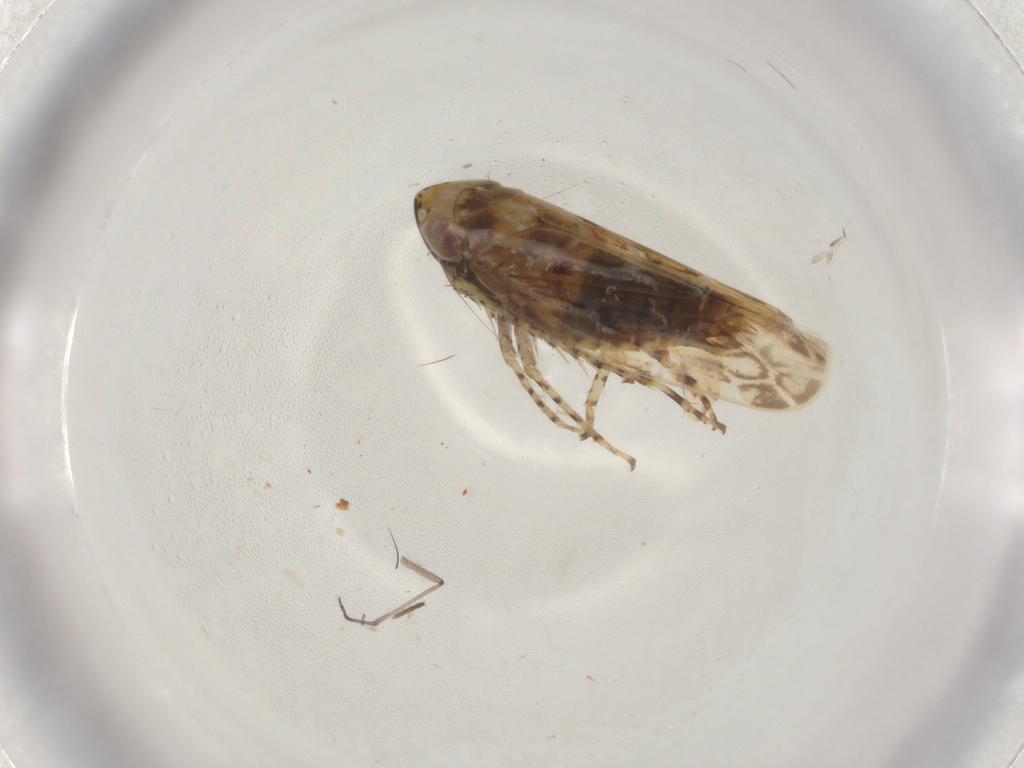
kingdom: Animalia
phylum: Arthropoda
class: Insecta
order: Hemiptera
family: Cicadellidae
